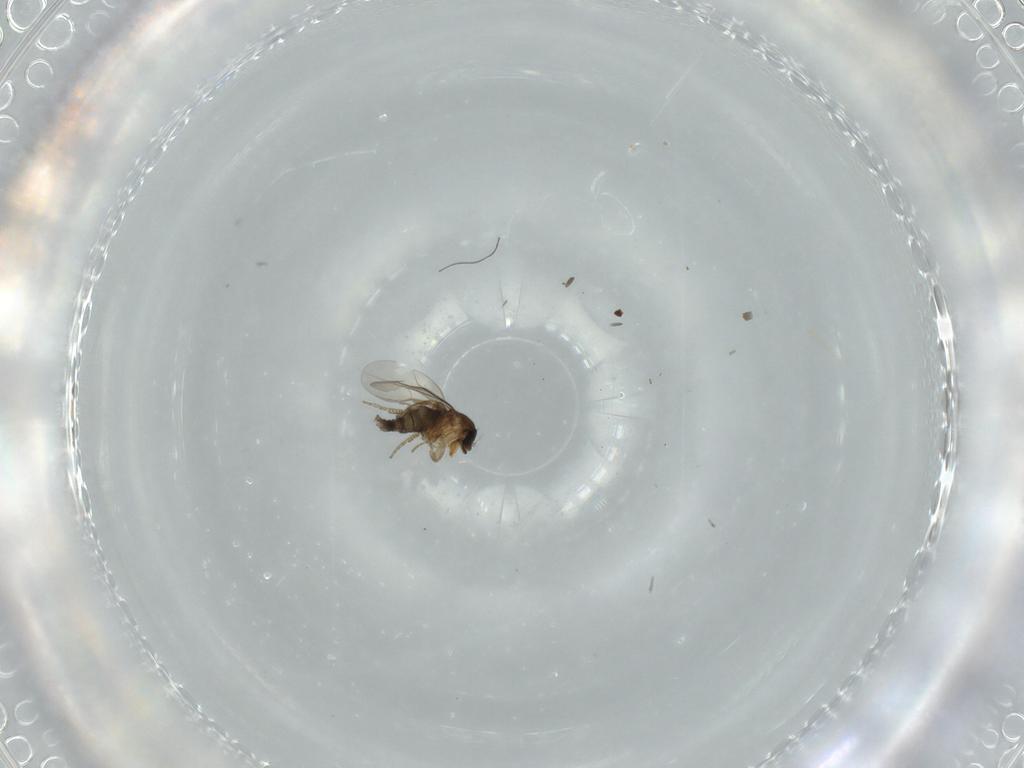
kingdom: Animalia
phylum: Arthropoda
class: Insecta
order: Diptera
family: Phoridae
